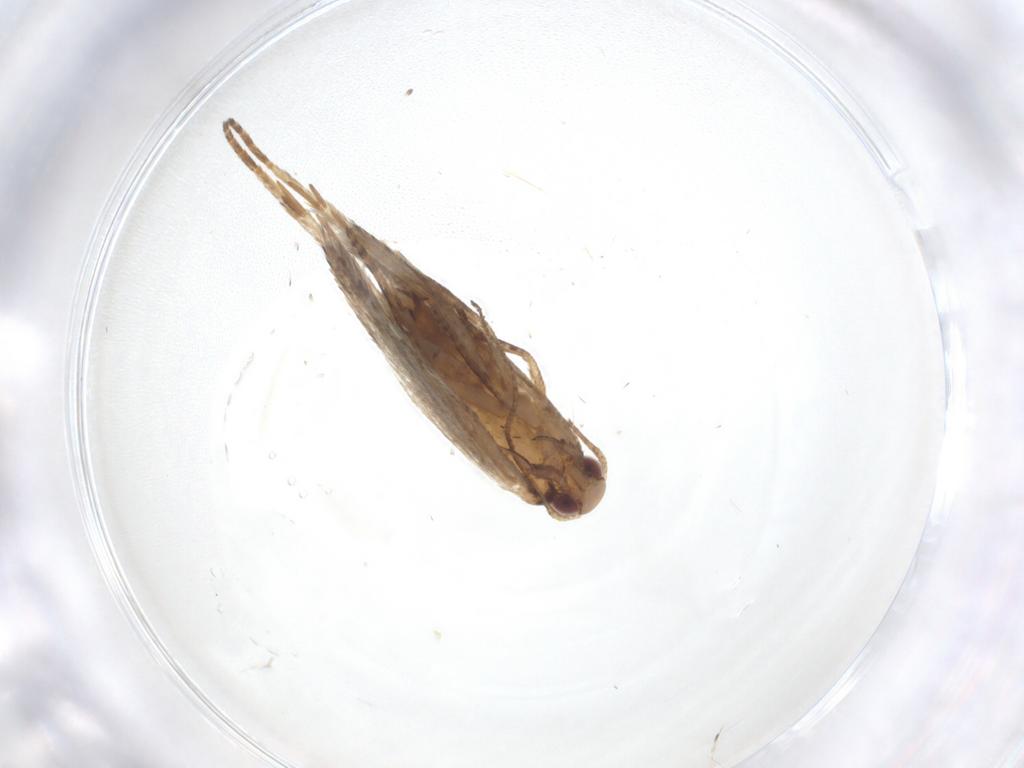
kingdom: Animalia
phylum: Arthropoda
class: Insecta
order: Lepidoptera
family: Gelechiidae
